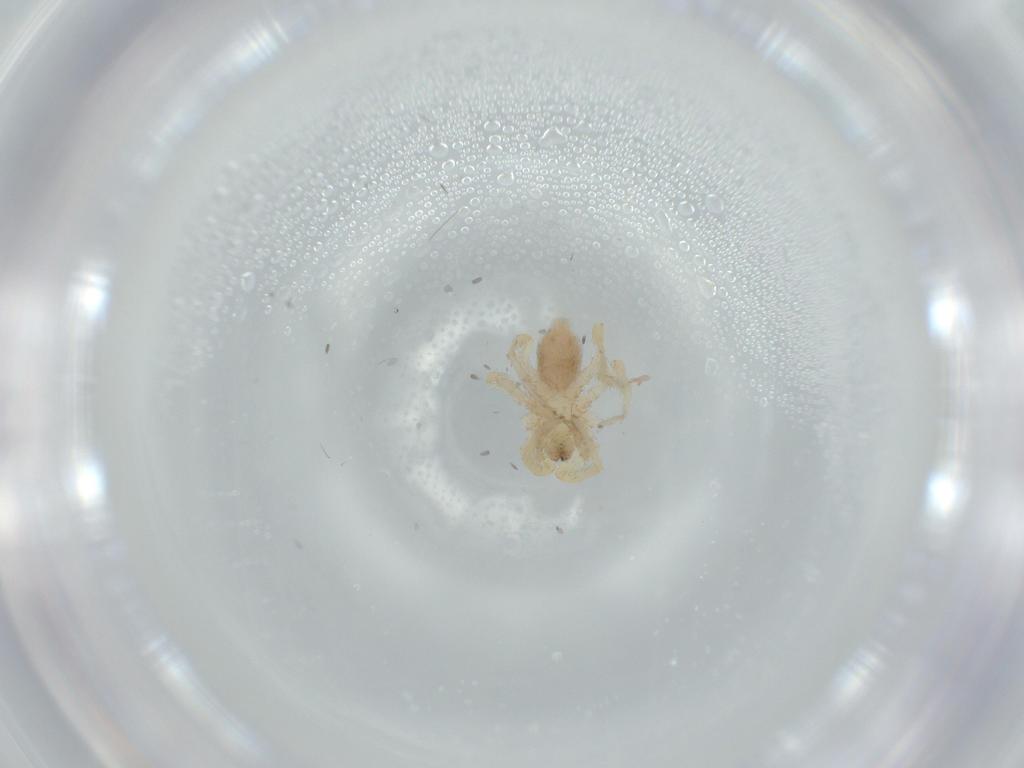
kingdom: Animalia
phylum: Arthropoda
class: Arachnida
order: Araneae
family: Oonopidae
